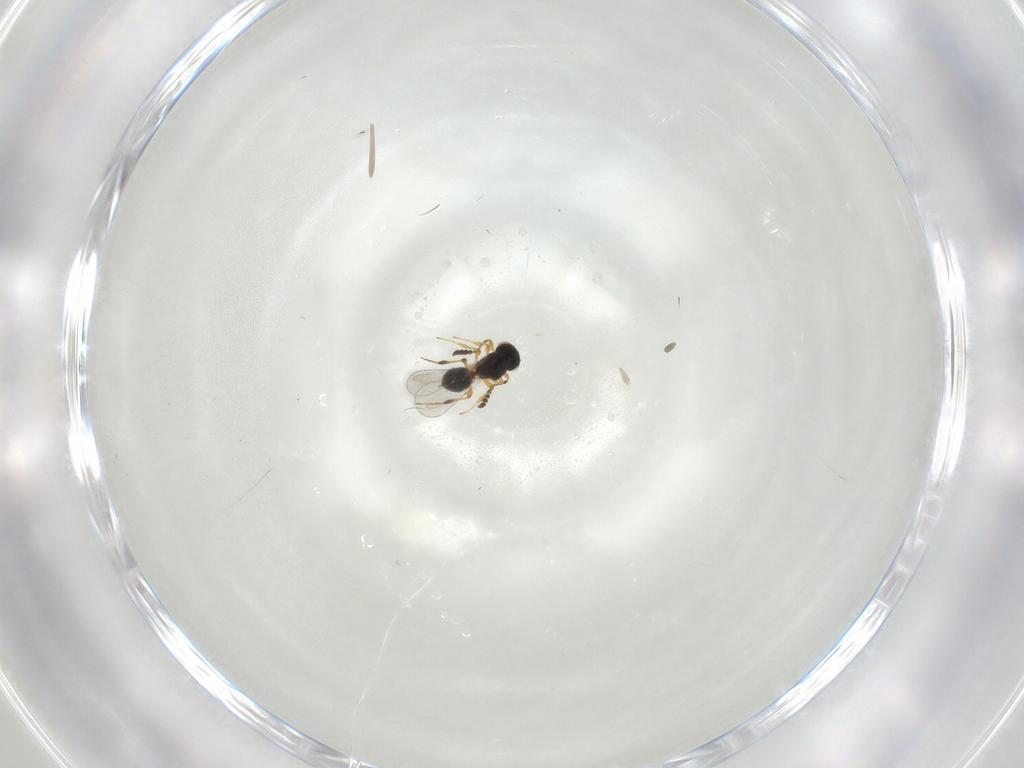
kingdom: Animalia
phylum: Arthropoda
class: Insecta
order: Hymenoptera
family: Platygastridae
